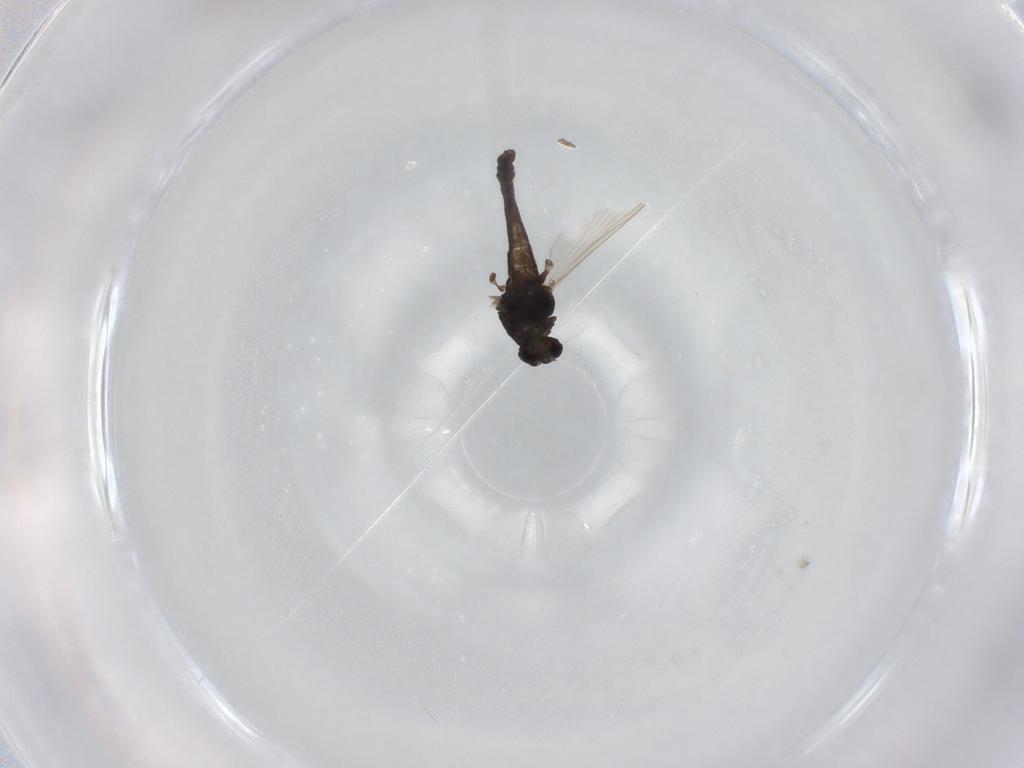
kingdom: Animalia
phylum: Arthropoda
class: Insecta
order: Diptera
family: Chironomidae
